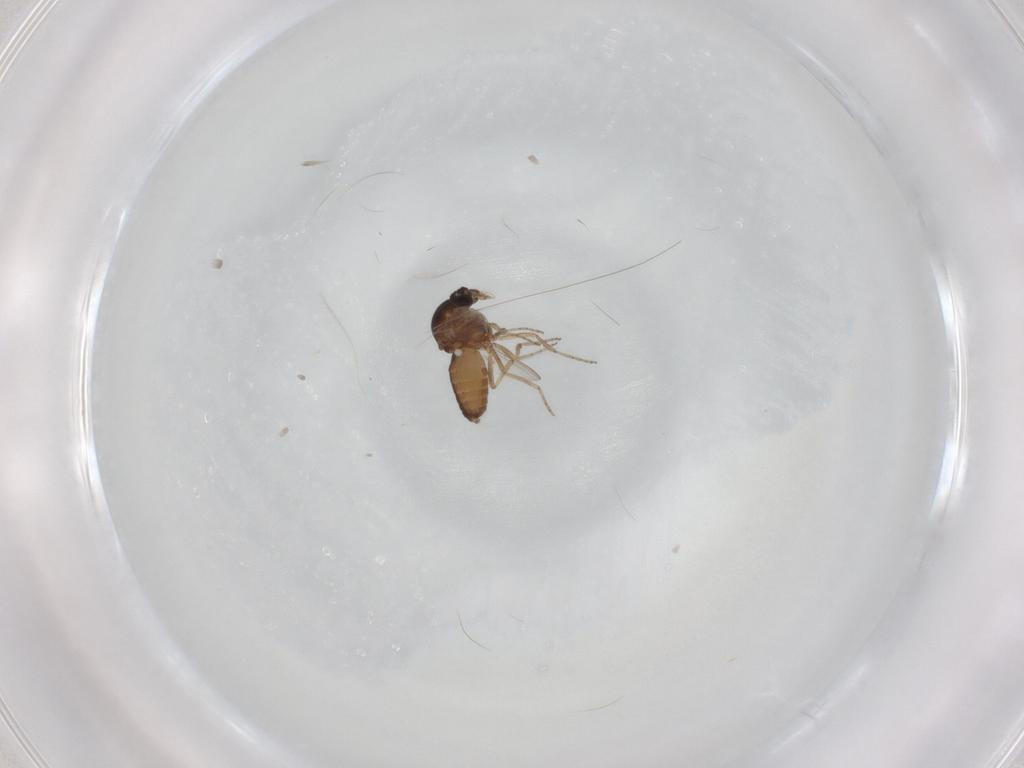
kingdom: Animalia
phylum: Arthropoda
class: Insecta
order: Diptera
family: Ceratopogonidae
